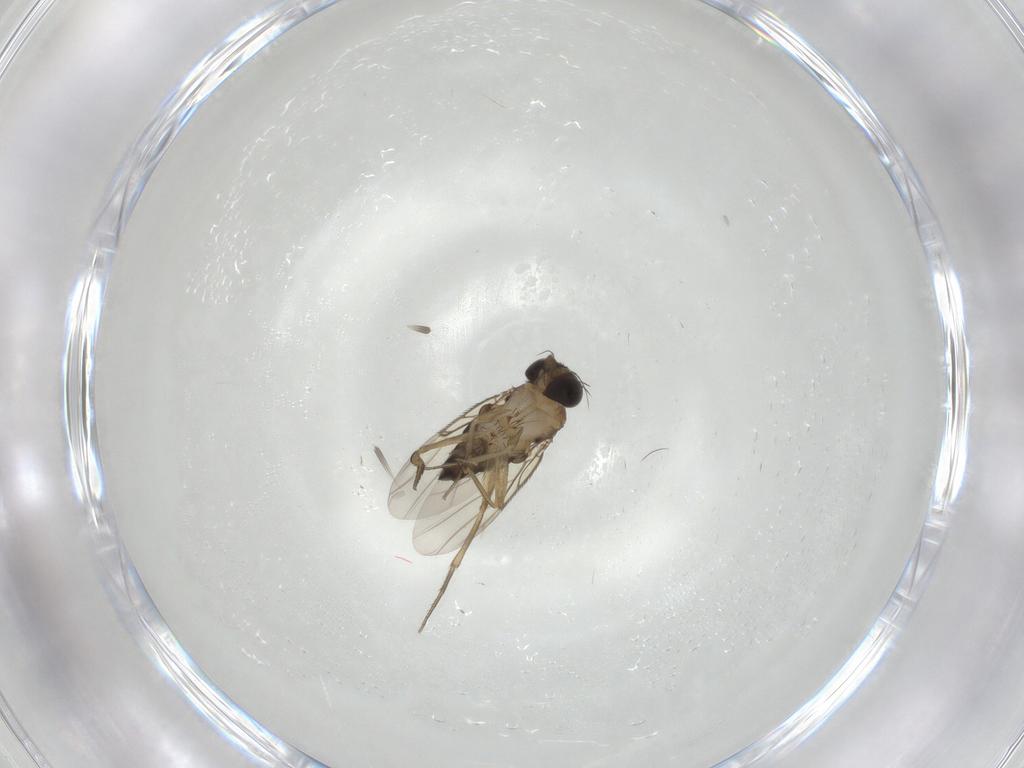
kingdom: Animalia
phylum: Arthropoda
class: Insecta
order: Diptera
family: Phoridae
